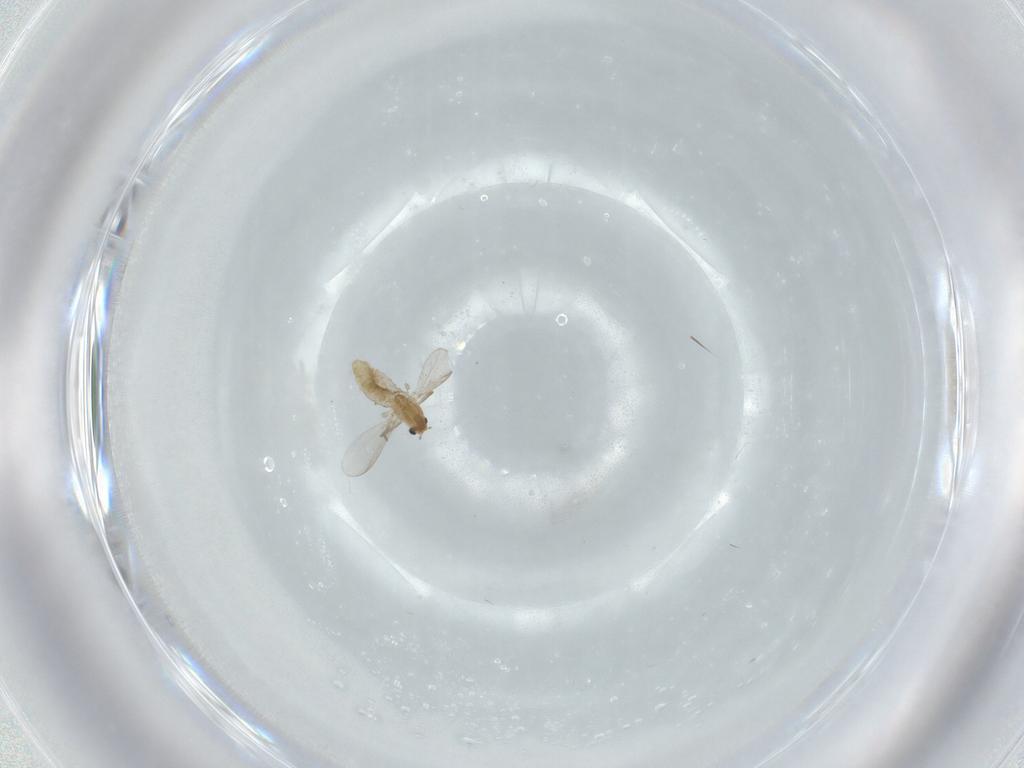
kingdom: Animalia
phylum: Arthropoda
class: Insecta
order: Diptera
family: Chironomidae
